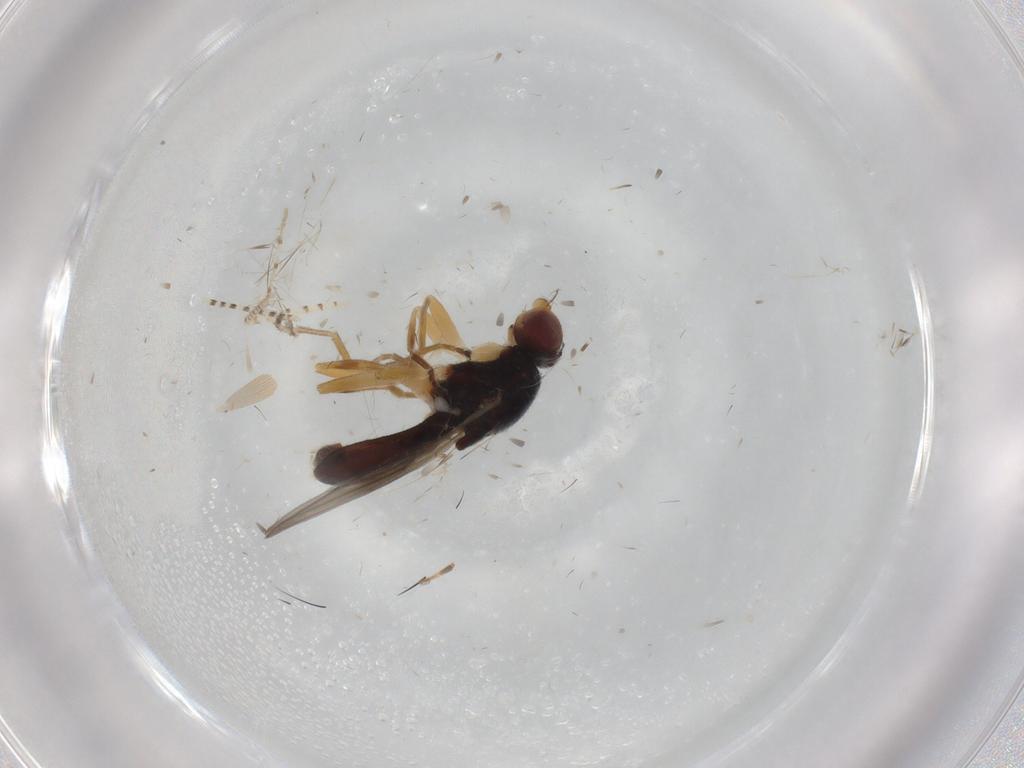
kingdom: Animalia
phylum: Arthropoda
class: Insecta
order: Diptera
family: Chloropidae
